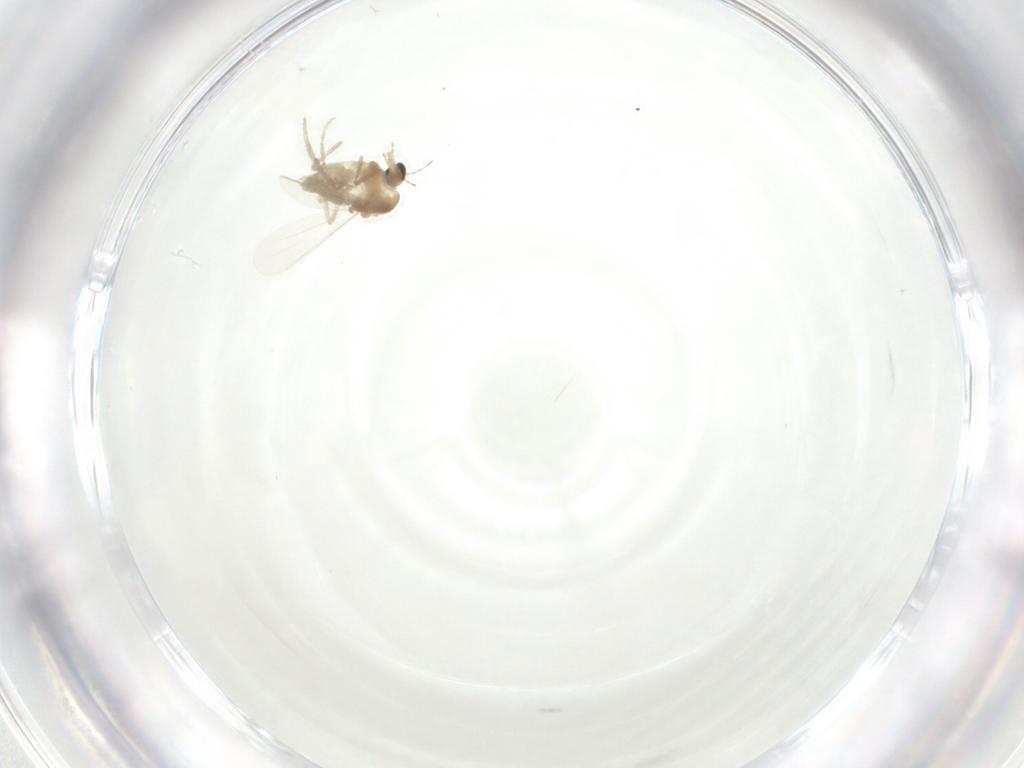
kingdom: Animalia
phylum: Arthropoda
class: Insecta
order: Diptera
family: Chironomidae
